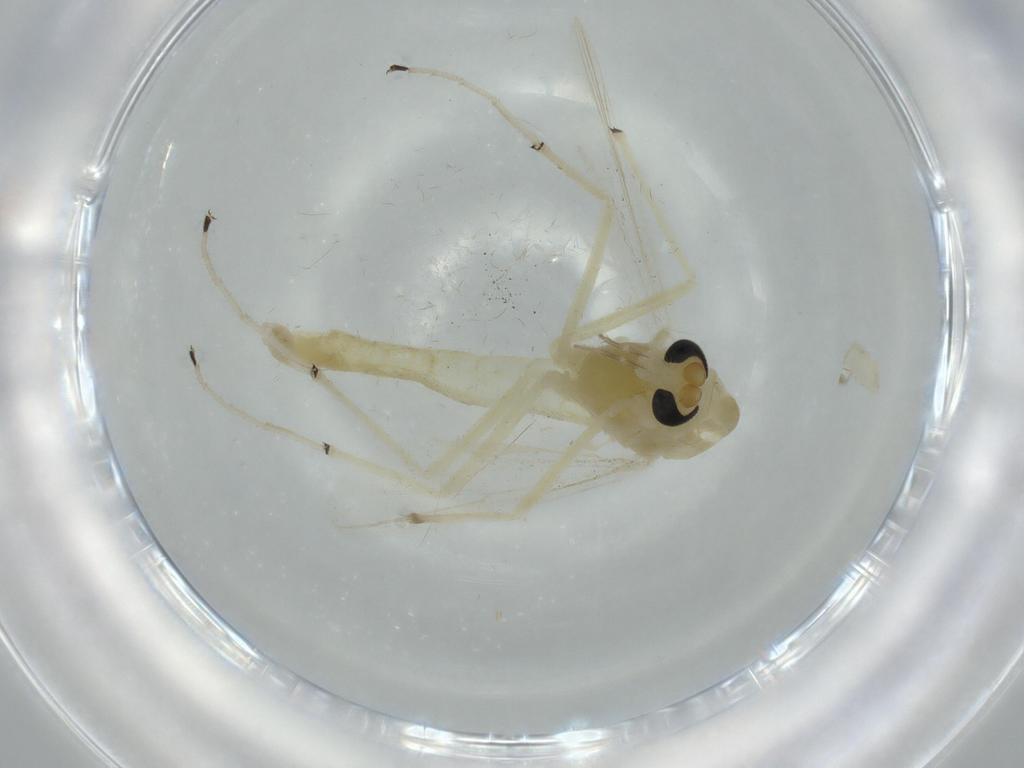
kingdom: Animalia
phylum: Arthropoda
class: Insecta
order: Diptera
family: Chironomidae
